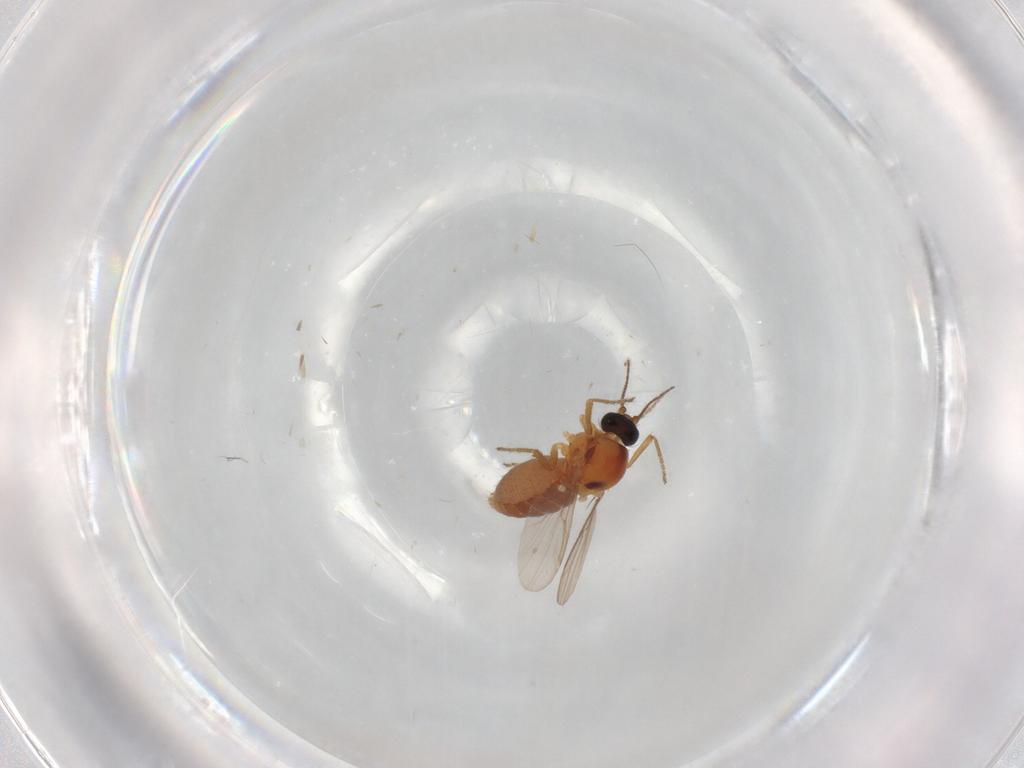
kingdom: Animalia
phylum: Arthropoda
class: Insecta
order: Diptera
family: Ceratopogonidae
